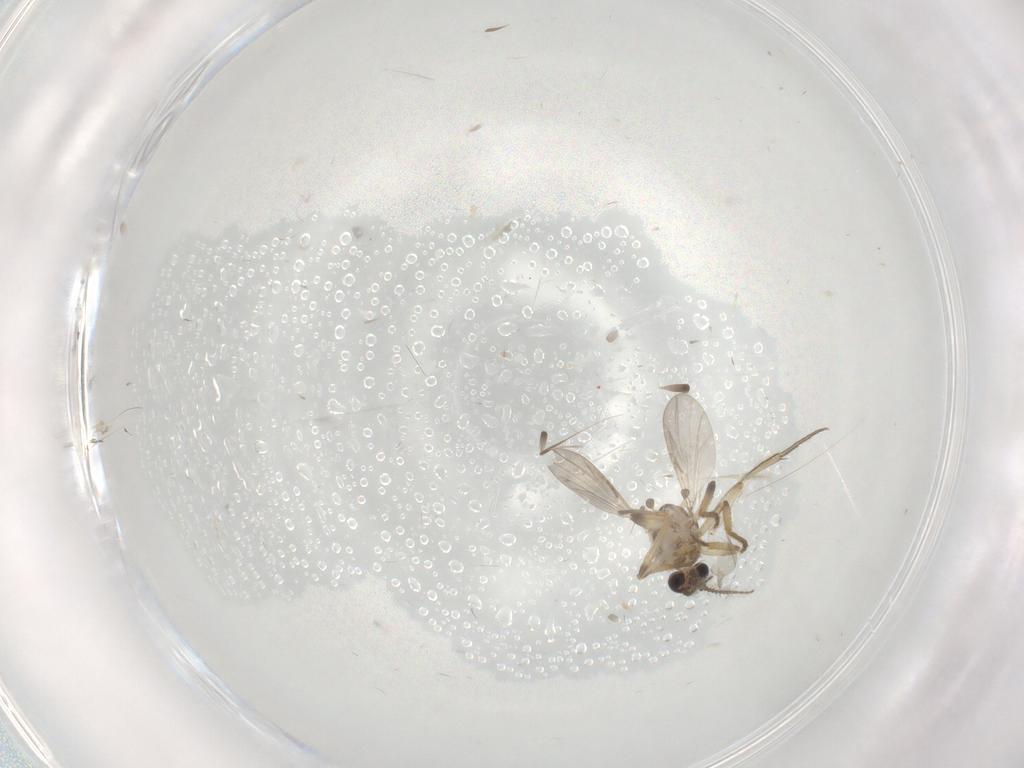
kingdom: Animalia
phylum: Arthropoda
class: Insecta
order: Diptera
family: Ceratopogonidae
